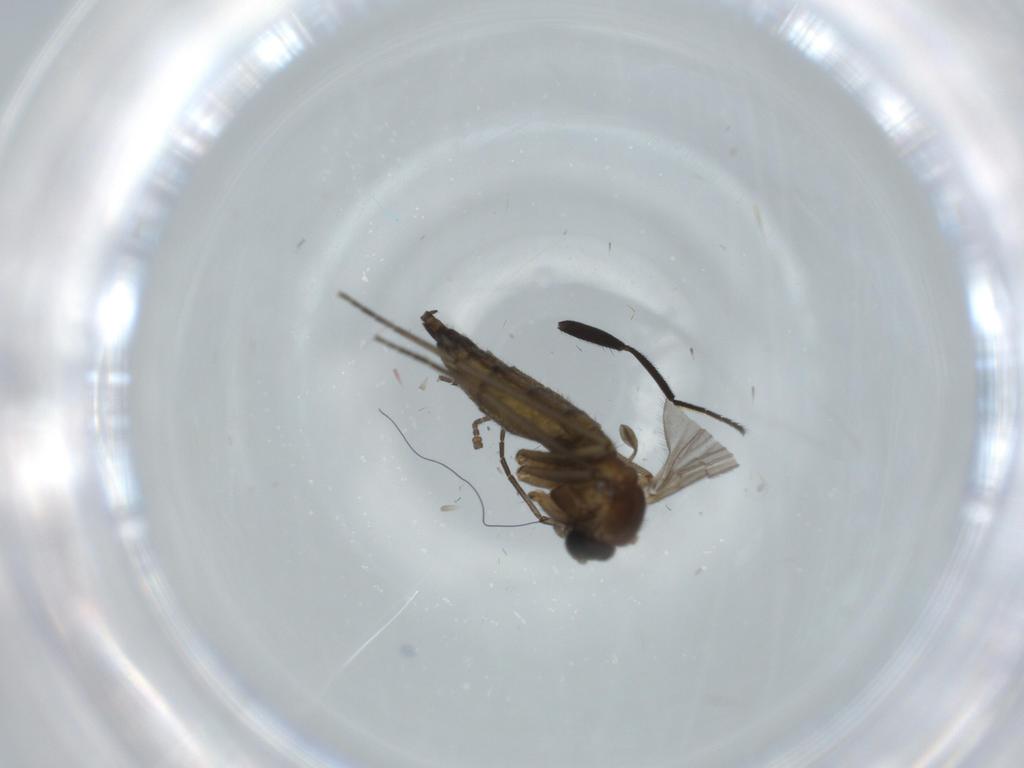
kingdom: Animalia
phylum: Arthropoda
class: Insecta
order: Diptera
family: Sciaridae
